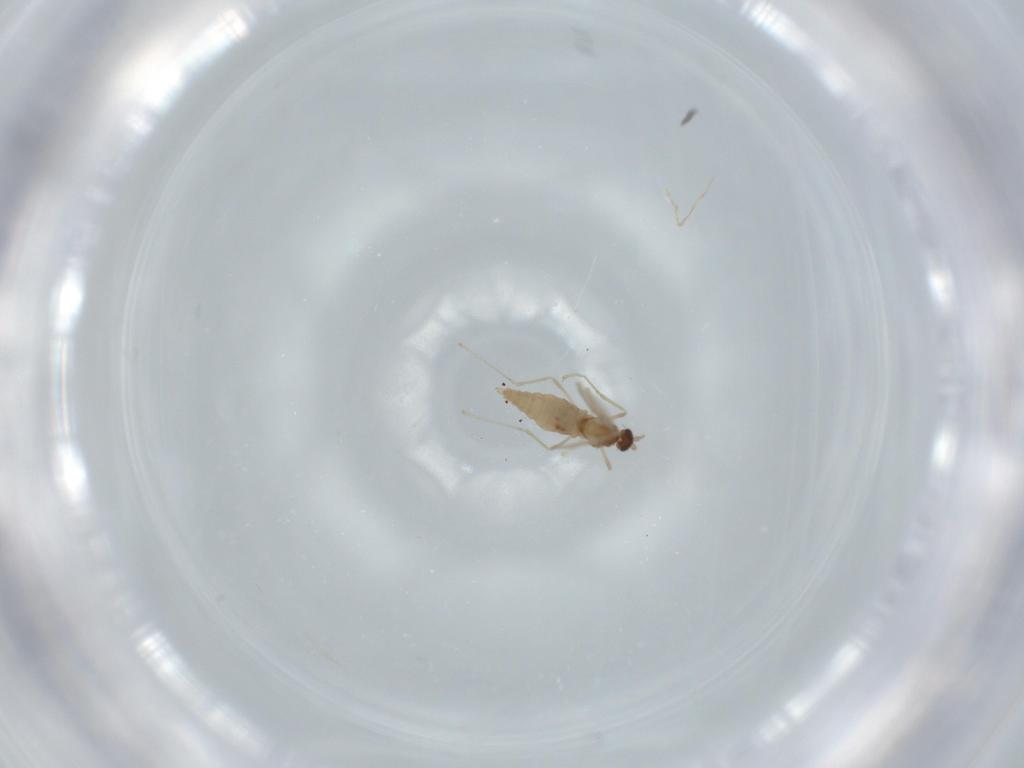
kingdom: Animalia
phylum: Arthropoda
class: Insecta
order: Diptera
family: Cecidomyiidae
